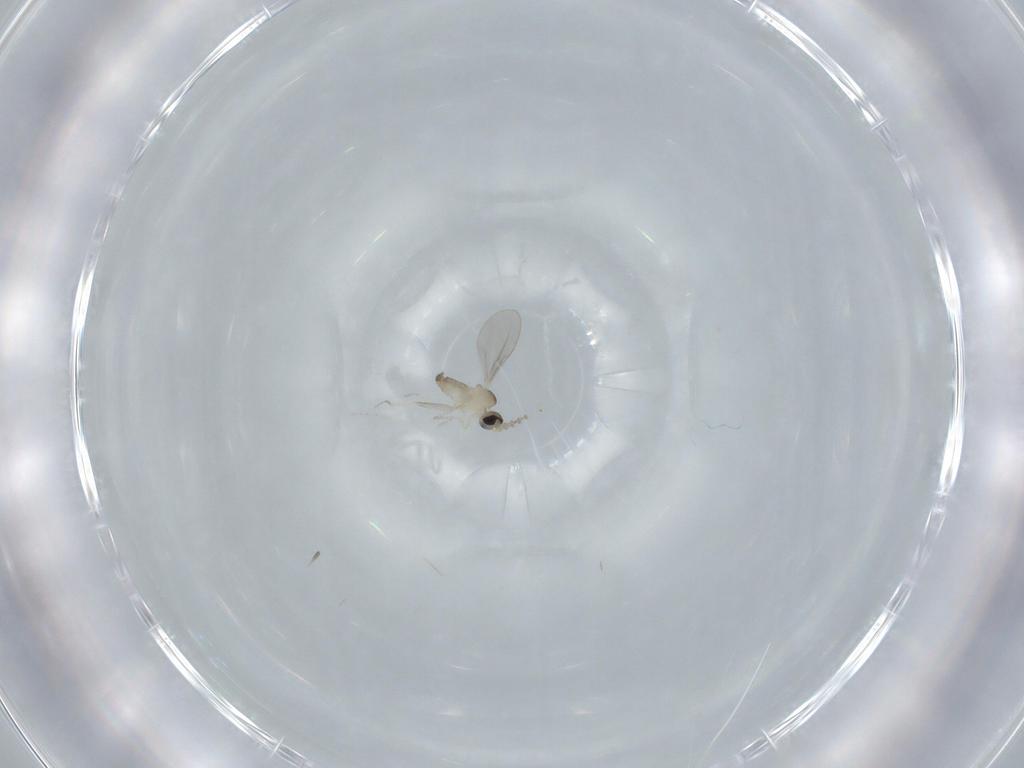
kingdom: Animalia
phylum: Arthropoda
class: Insecta
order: Diptera
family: Cecidomyiidae
